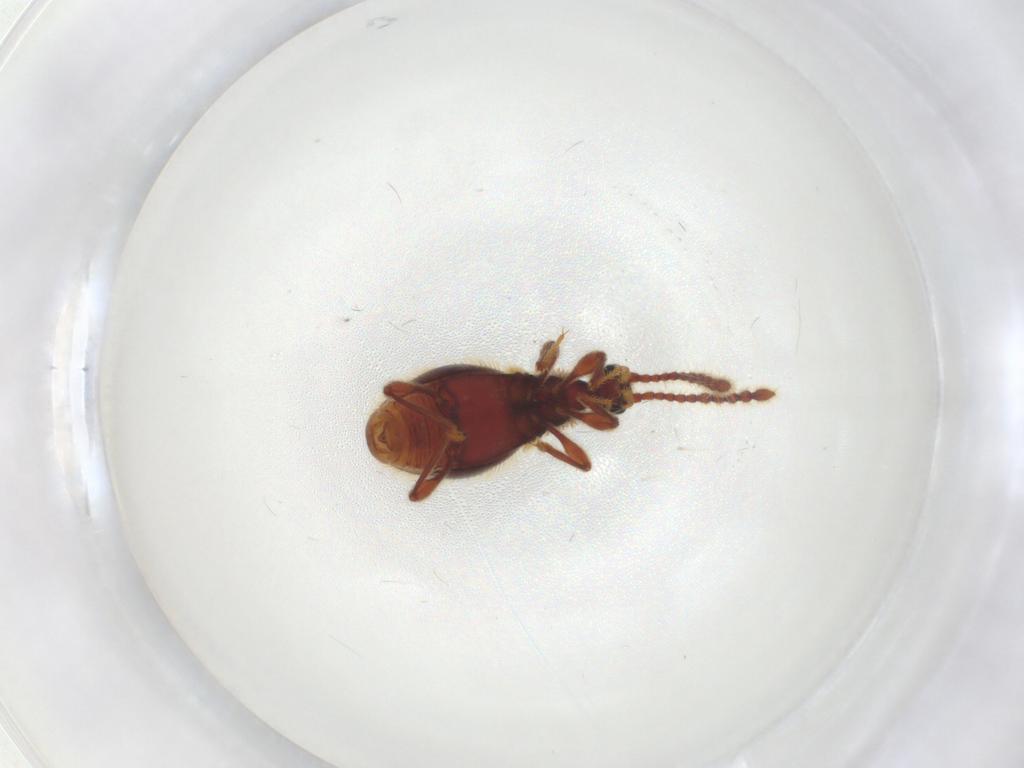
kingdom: Animalia
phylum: Arthropoda
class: Insecta
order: Coleoptera
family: Staphylinidae
